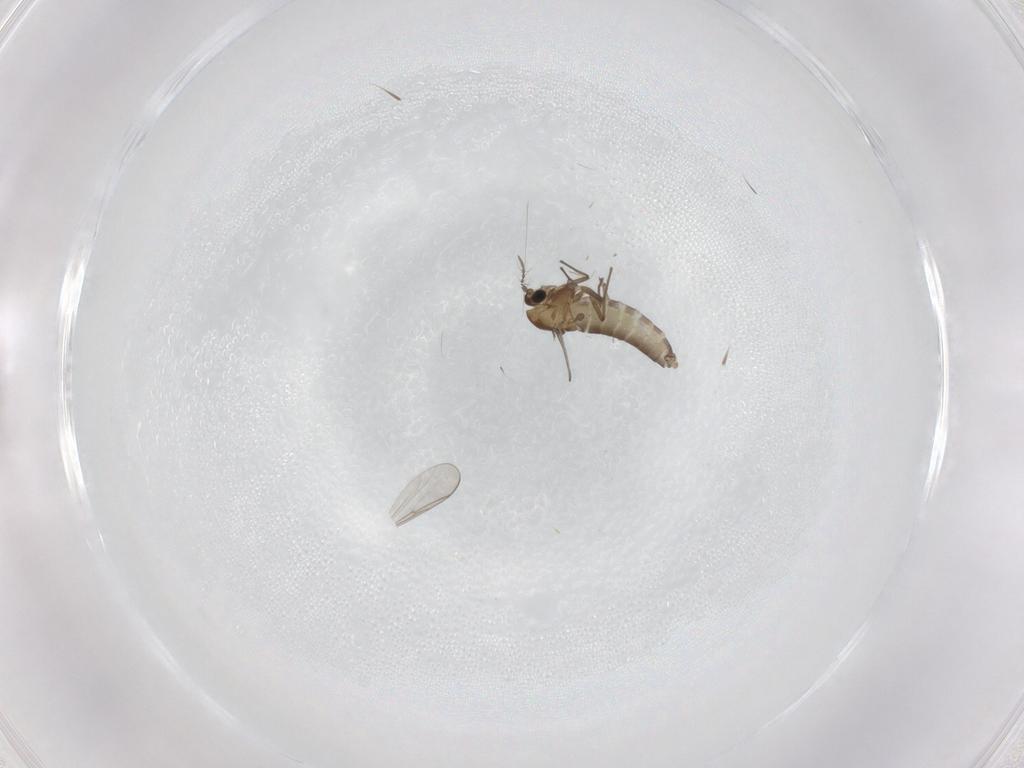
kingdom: Animalia
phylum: Arthropoda
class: Insecta
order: Diptera
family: Chironomidae
